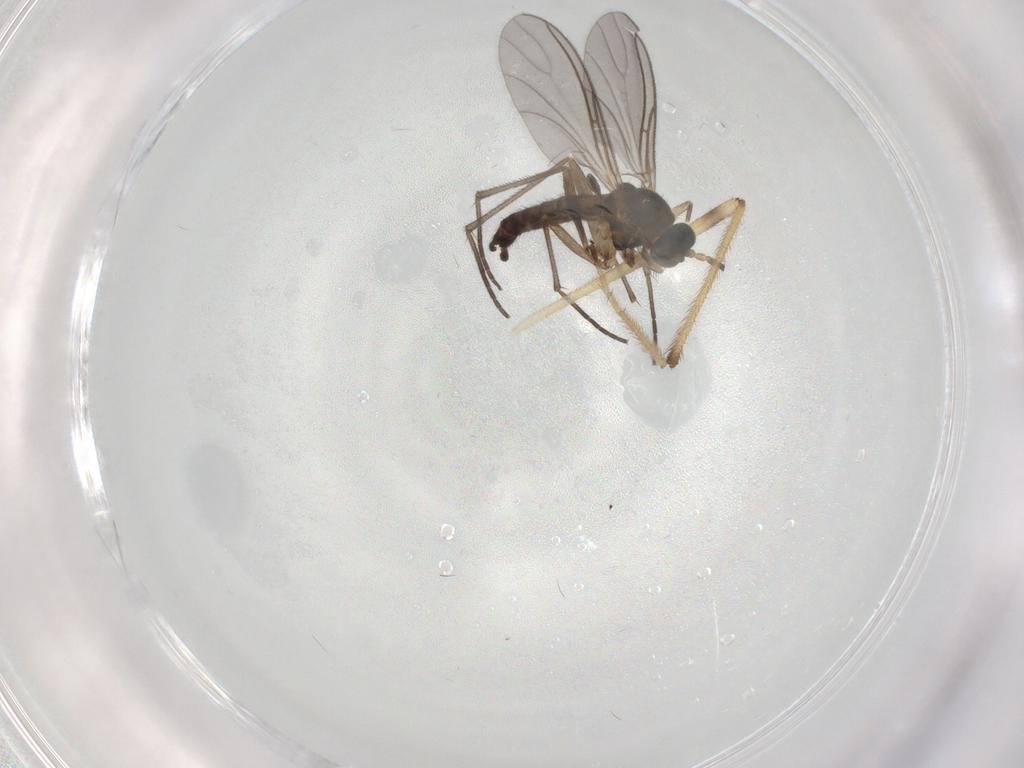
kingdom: Animalia
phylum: Arthropoda
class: Insecta
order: Diptera
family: Sciaridae
